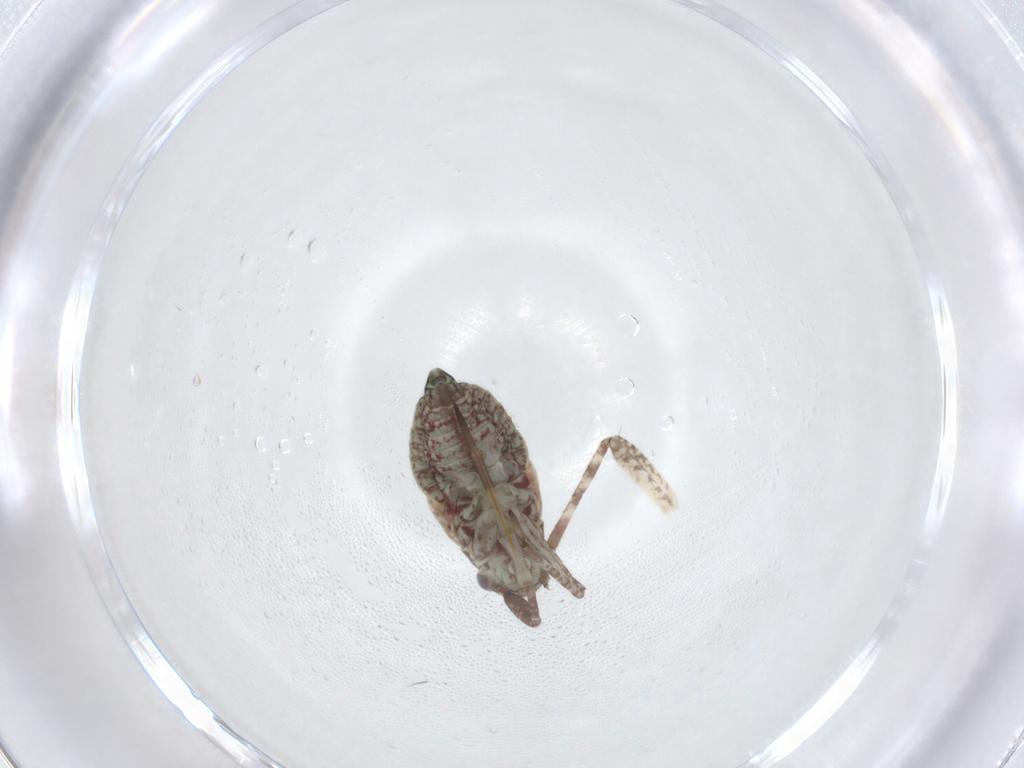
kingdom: Animalia
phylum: Arthropoda
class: Insecta
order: Hemiptera
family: Miridae
